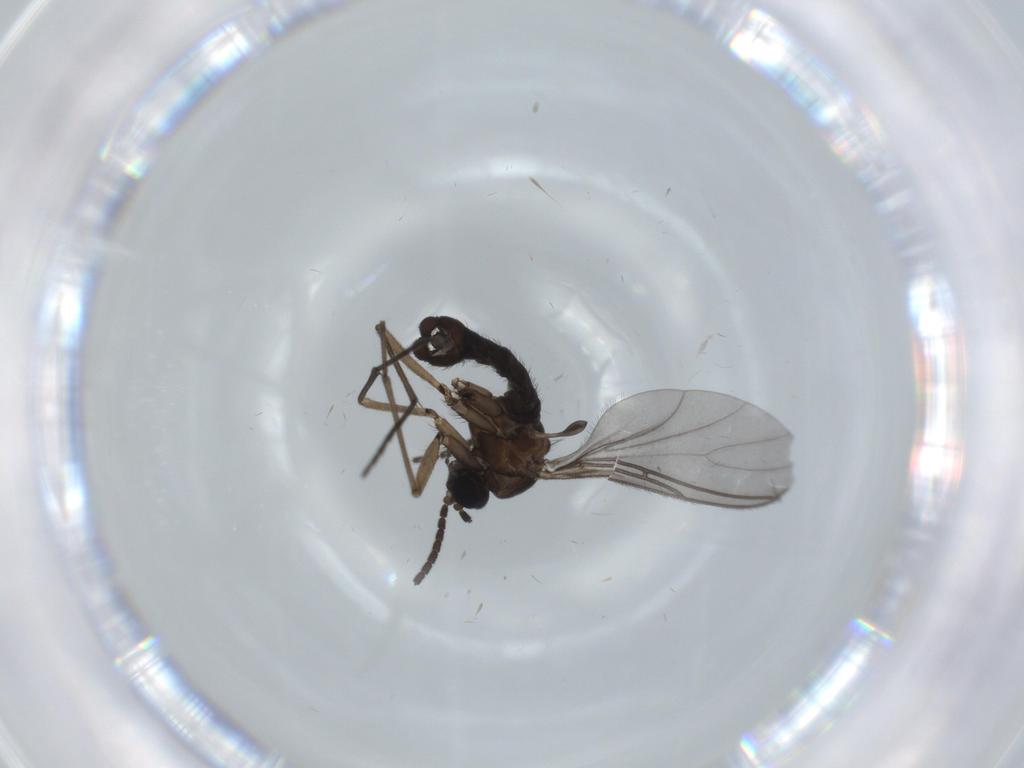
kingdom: Animalia
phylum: Arthropoda
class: Insecta
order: Diptera
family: Sciaridae
